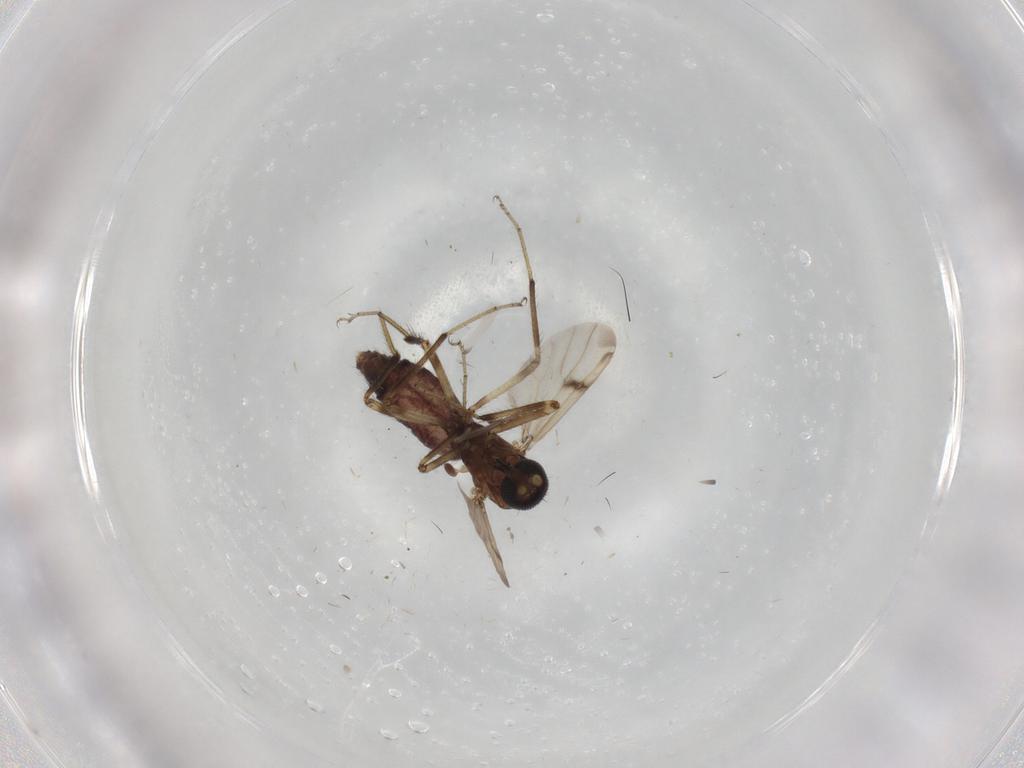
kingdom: Animalia
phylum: Arthropoda
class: Insecta
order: Diptera
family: Ceratopogonidae
